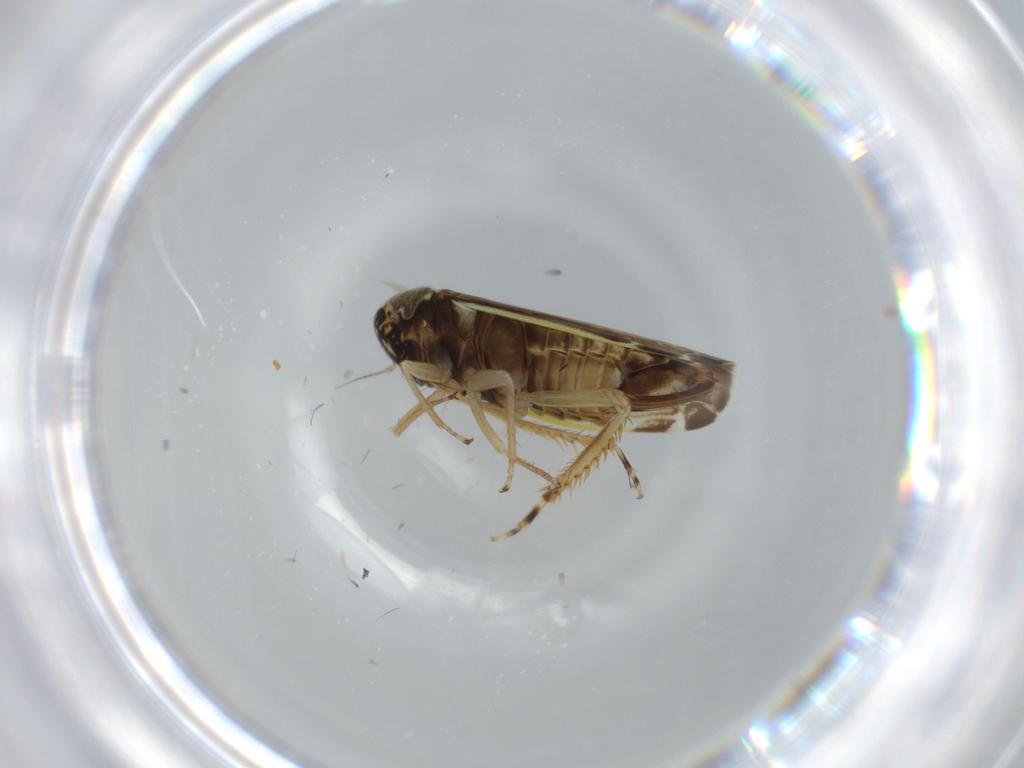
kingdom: Animalia
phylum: Arthropoda
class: Insecta
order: Hemiptera
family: Cicadellidae
